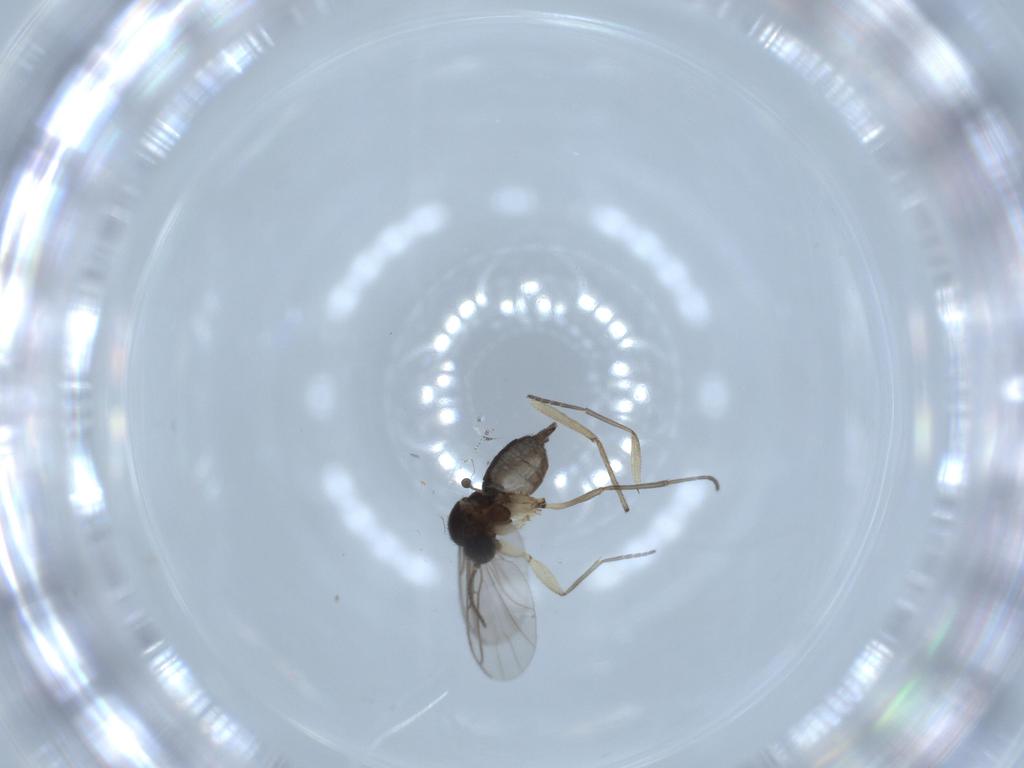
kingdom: Animalia
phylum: Arthropoda
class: Insecta
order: Diptera
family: Sciaridae
